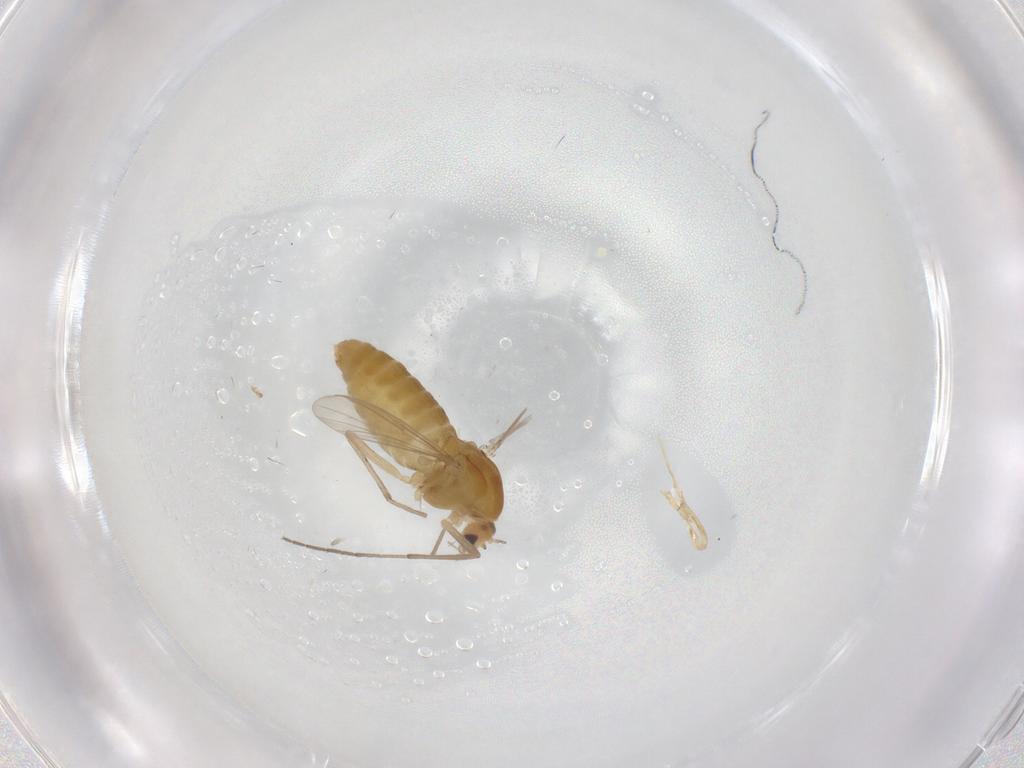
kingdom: Animalia
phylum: Arthropoda
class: Insecta
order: Diptera
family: Chironomidae
